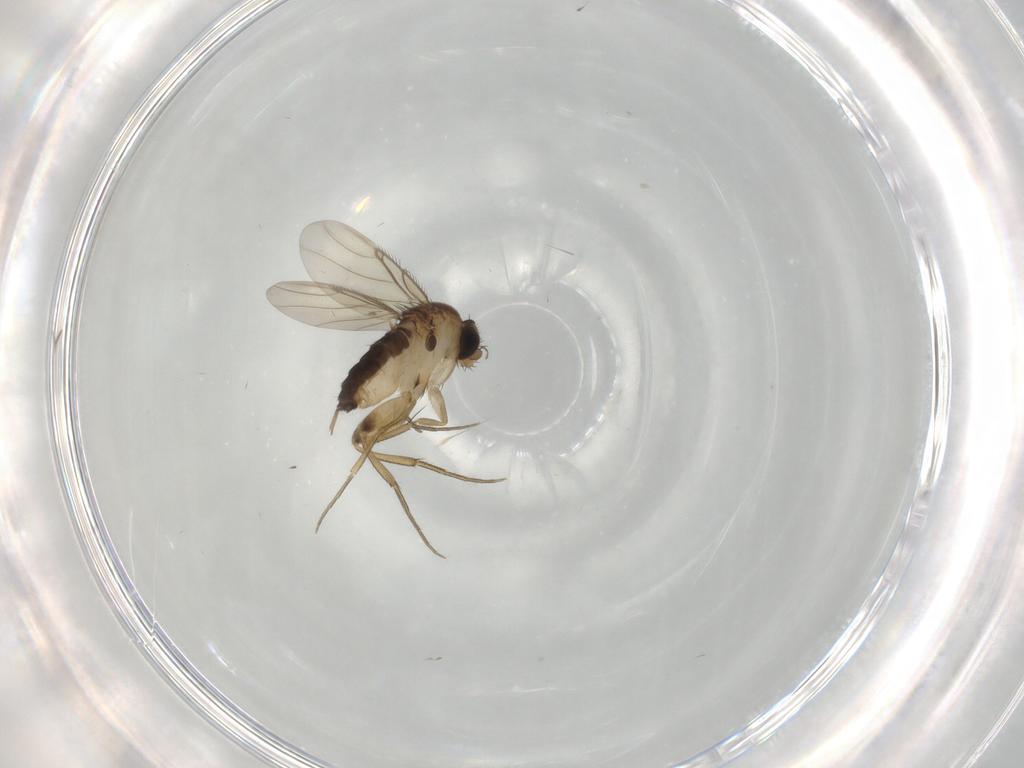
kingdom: Animalia
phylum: Arthropoda
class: Insecta
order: Diptera
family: Phoridae
